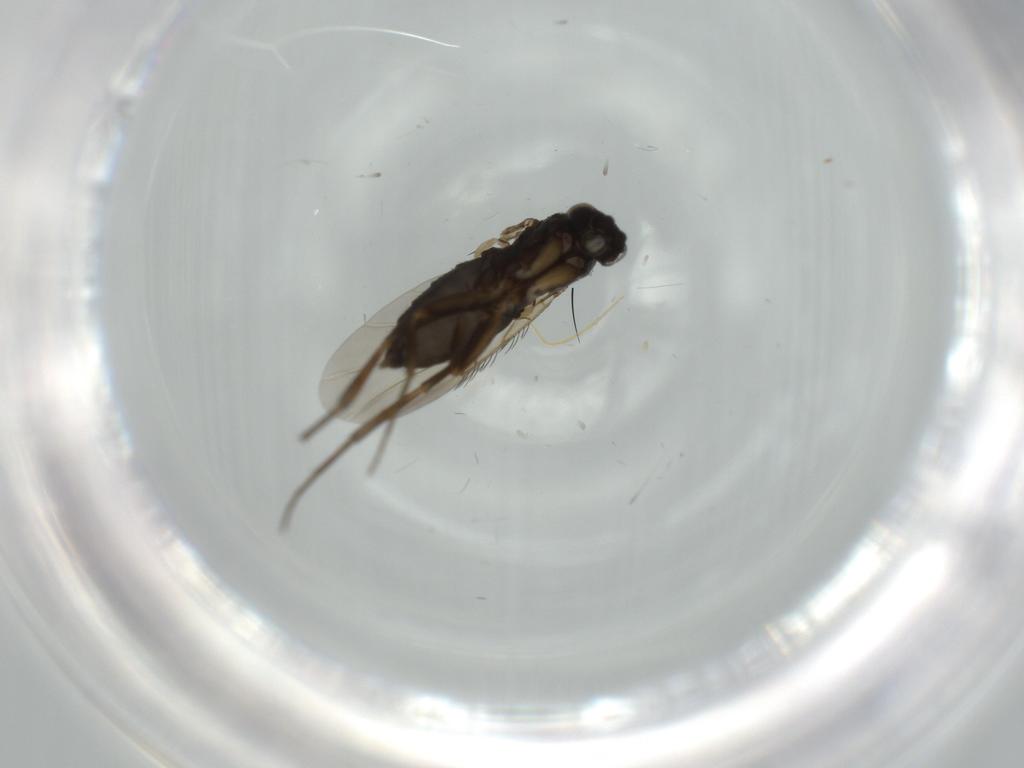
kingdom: Animalia
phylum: Arthropoda
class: Insecta
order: Diptera
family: Phoridae
